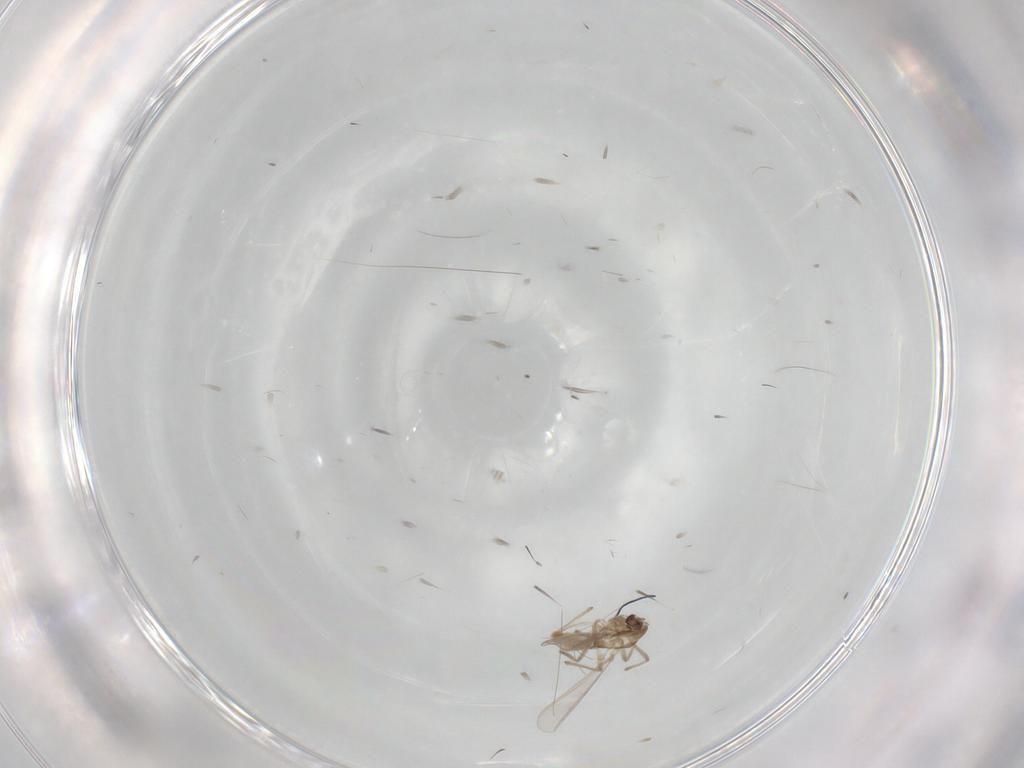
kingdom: Animalia
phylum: Arthropoda
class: Insecta
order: Diptera
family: Chironomidae
